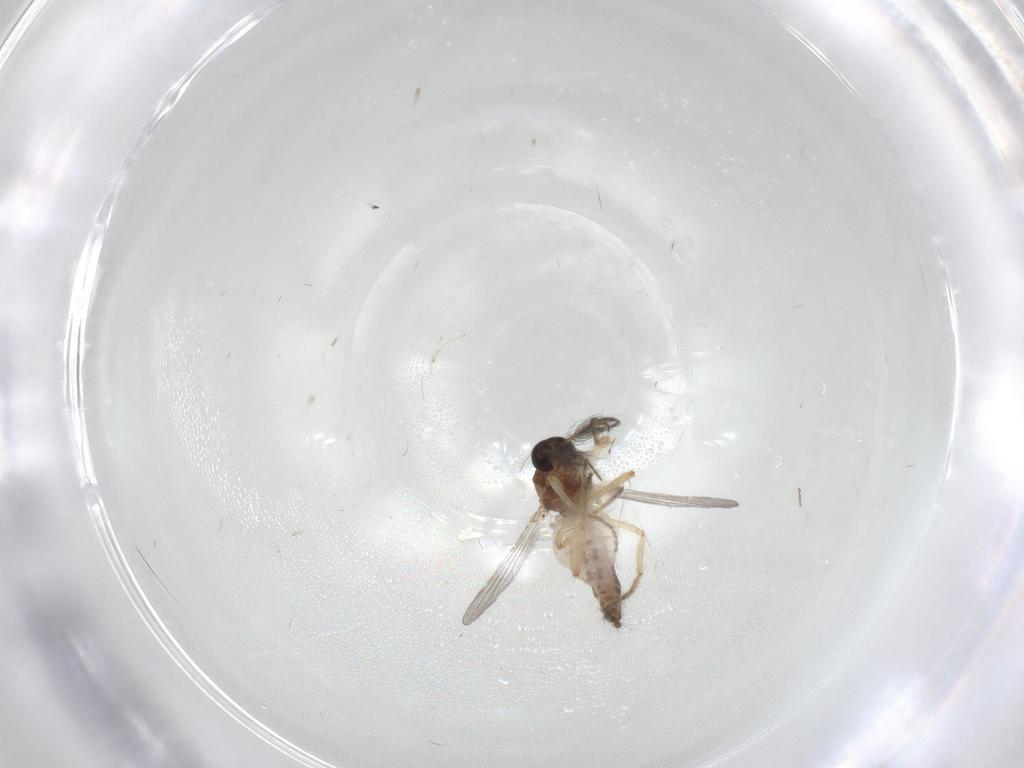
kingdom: Animalia
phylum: Arthropoda
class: Insecta
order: Diptera
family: Ceratopogonidae
